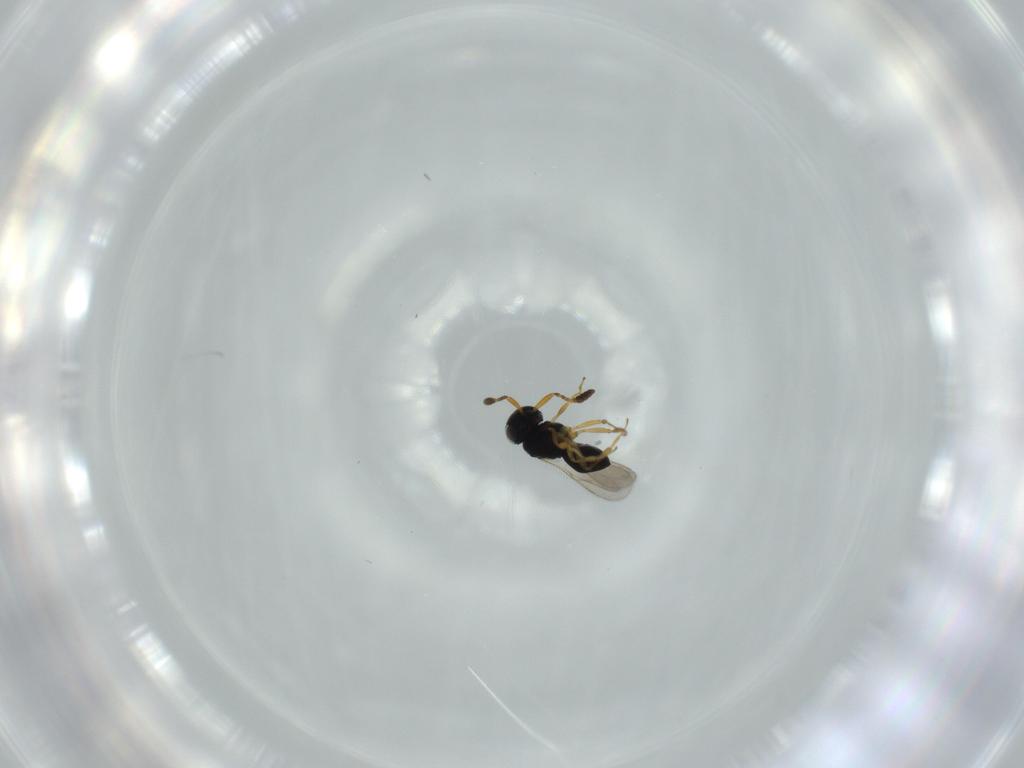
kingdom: Animalia
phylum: Arthropoda
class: Insecta
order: Hymenoptera
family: Scelionidae
